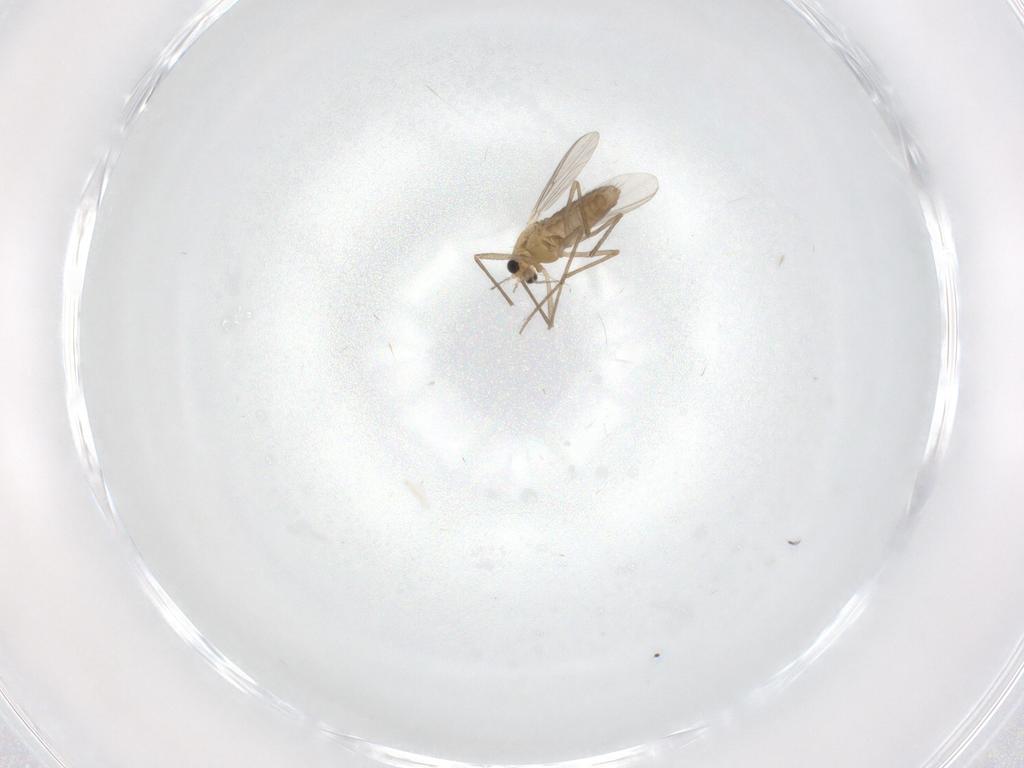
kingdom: Animalia
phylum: Arthropoda
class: Insecta
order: Diptera
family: Chironomidae
